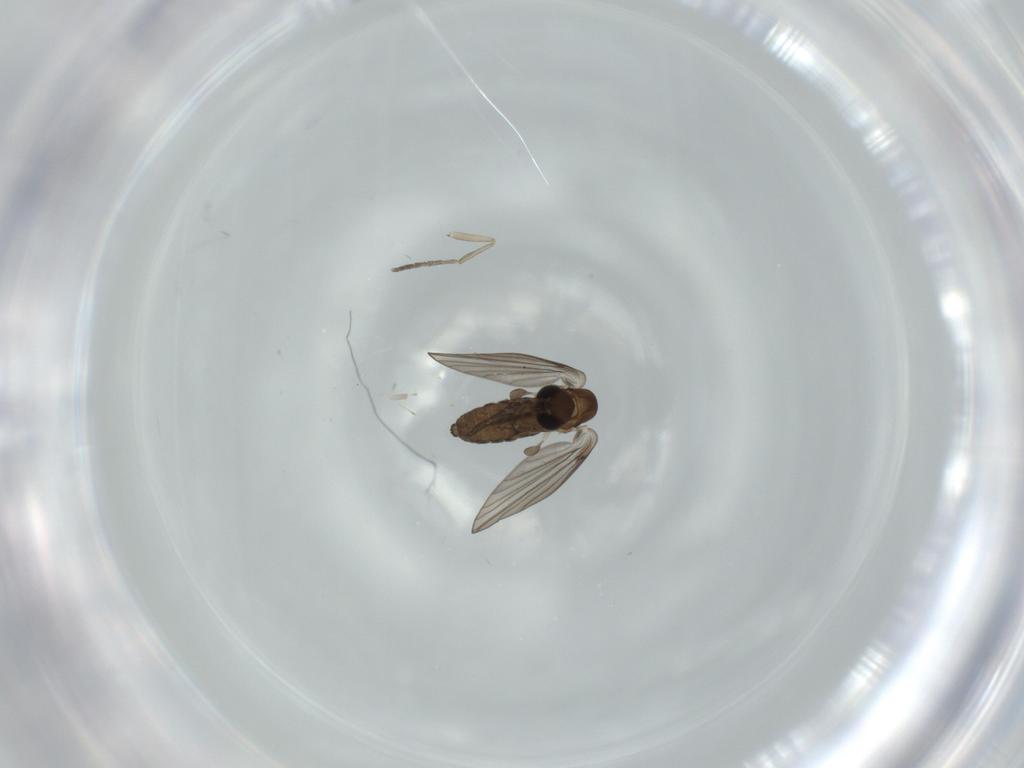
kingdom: Animalia
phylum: Arthropoda
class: Insecta
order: Diptera
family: Psychodidae
